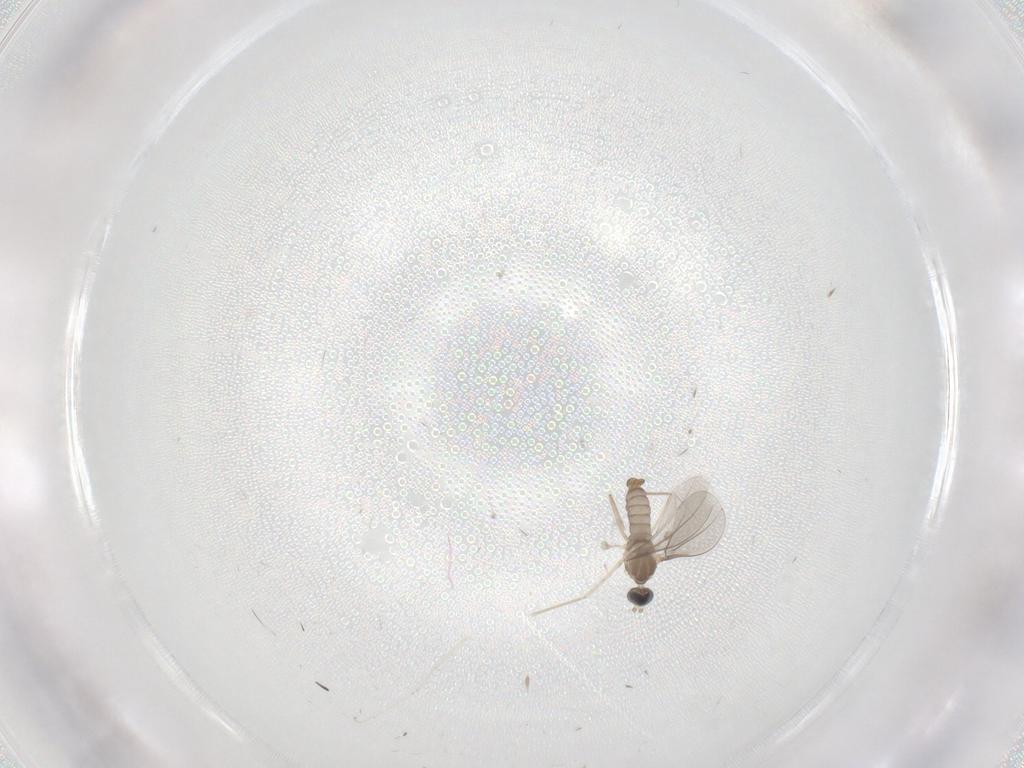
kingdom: Animalia
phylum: Arthropoda
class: Insecta
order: Diptera
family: Cecidomyiidae
